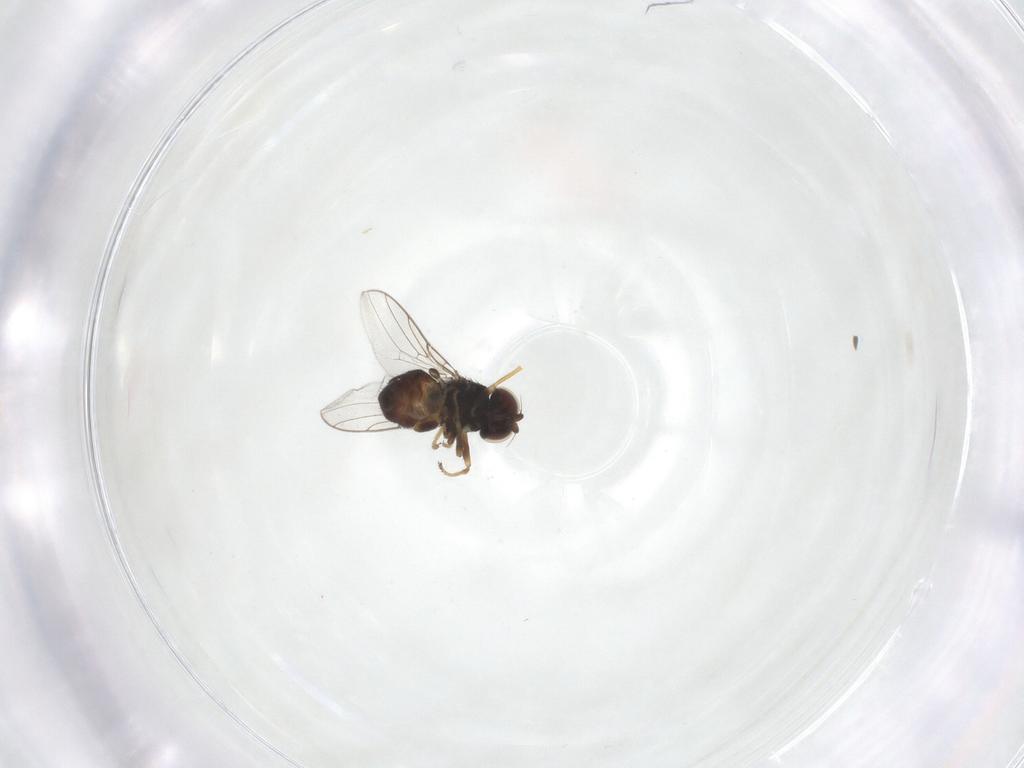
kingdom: Animalia
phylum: Arthropoda
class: Insecta
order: Diptera
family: Chloropidae
